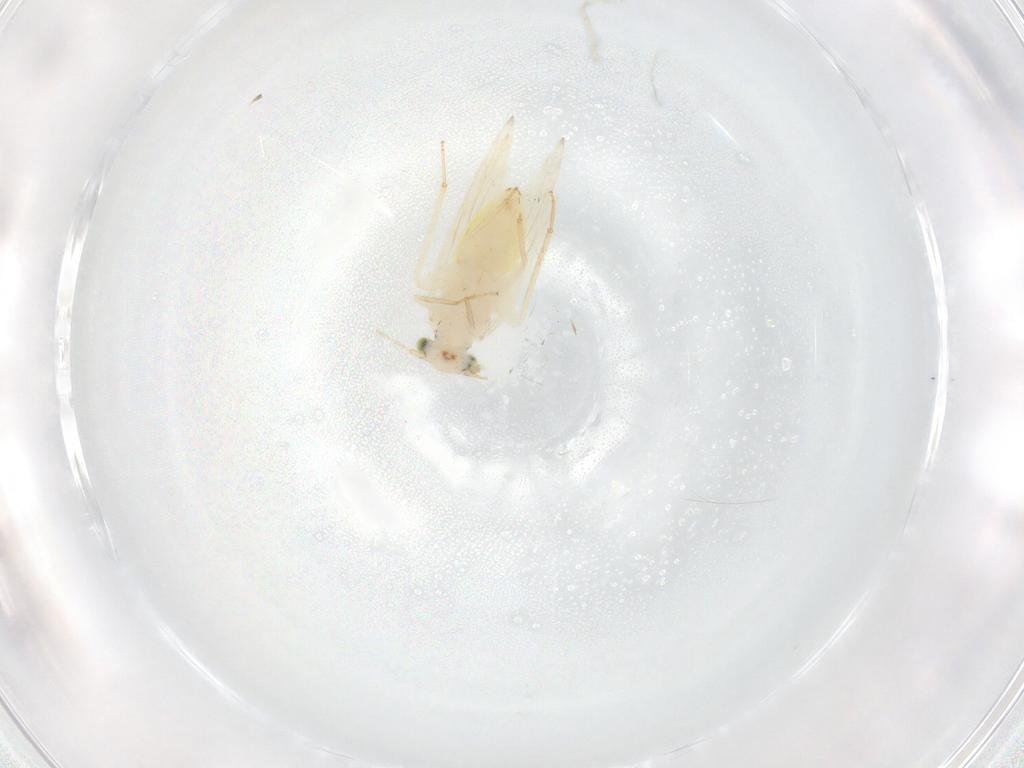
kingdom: Animalia
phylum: Arthropoda
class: Insecta
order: Psocodea
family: Lepidopsocidae
